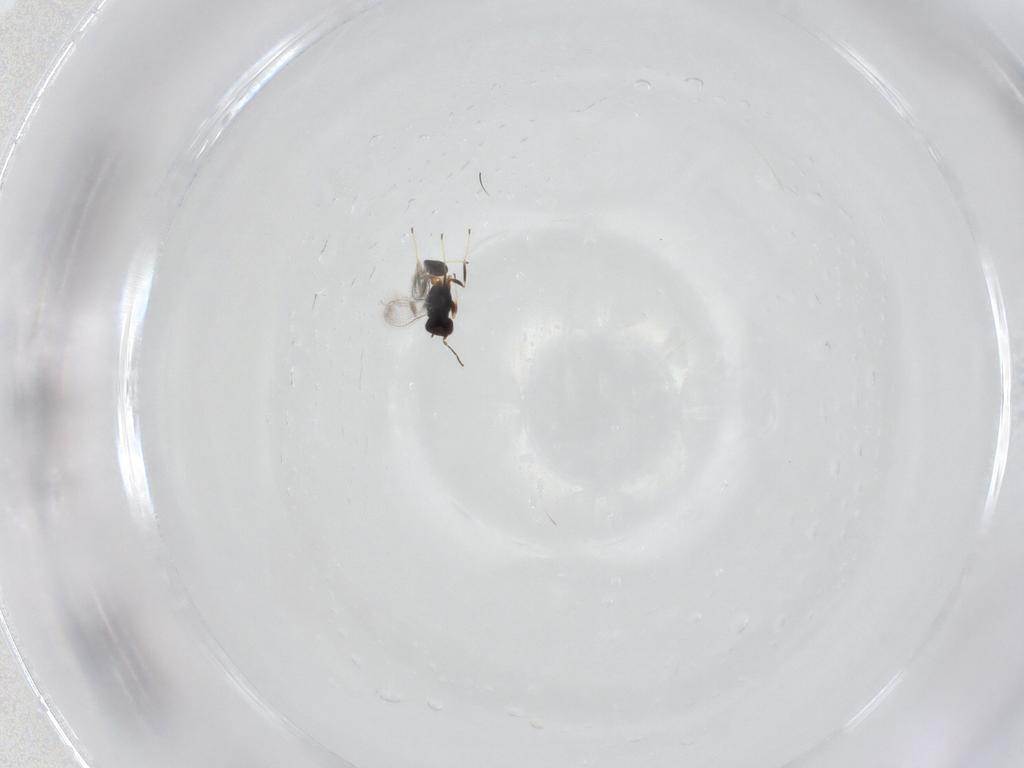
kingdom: Animalia
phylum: Arthropoda
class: Insecta
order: Hymenoptera
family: Mymaridae
